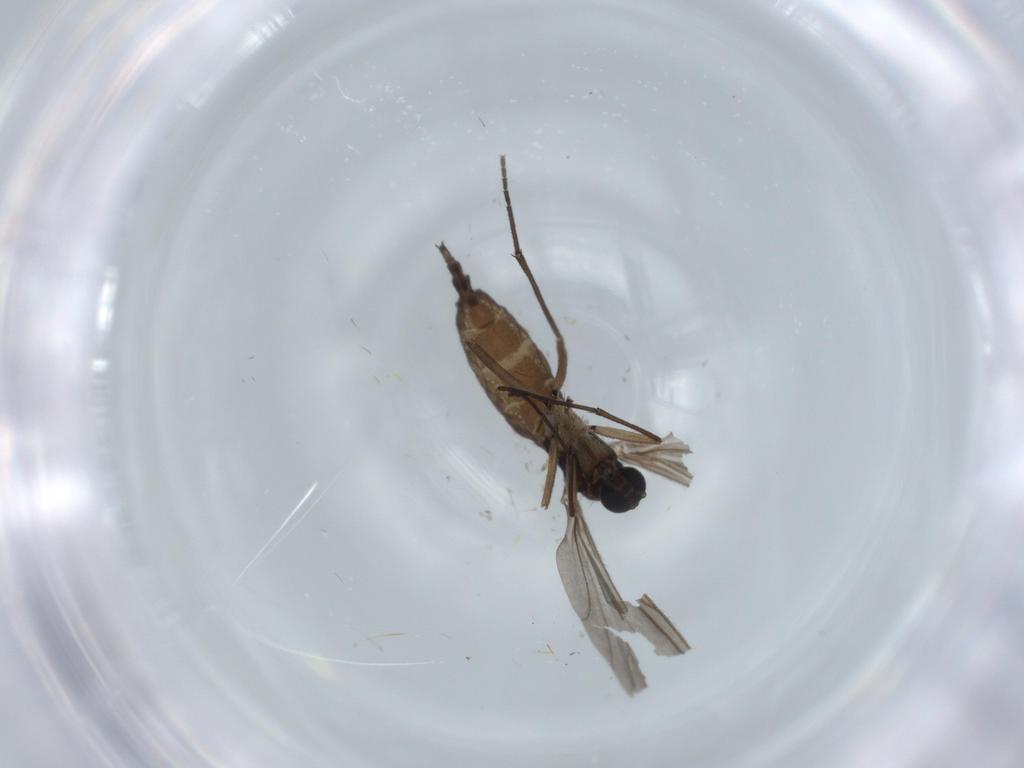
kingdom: Animalia
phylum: Arthropoda
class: Insecta
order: Diptera
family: Sciaridae
